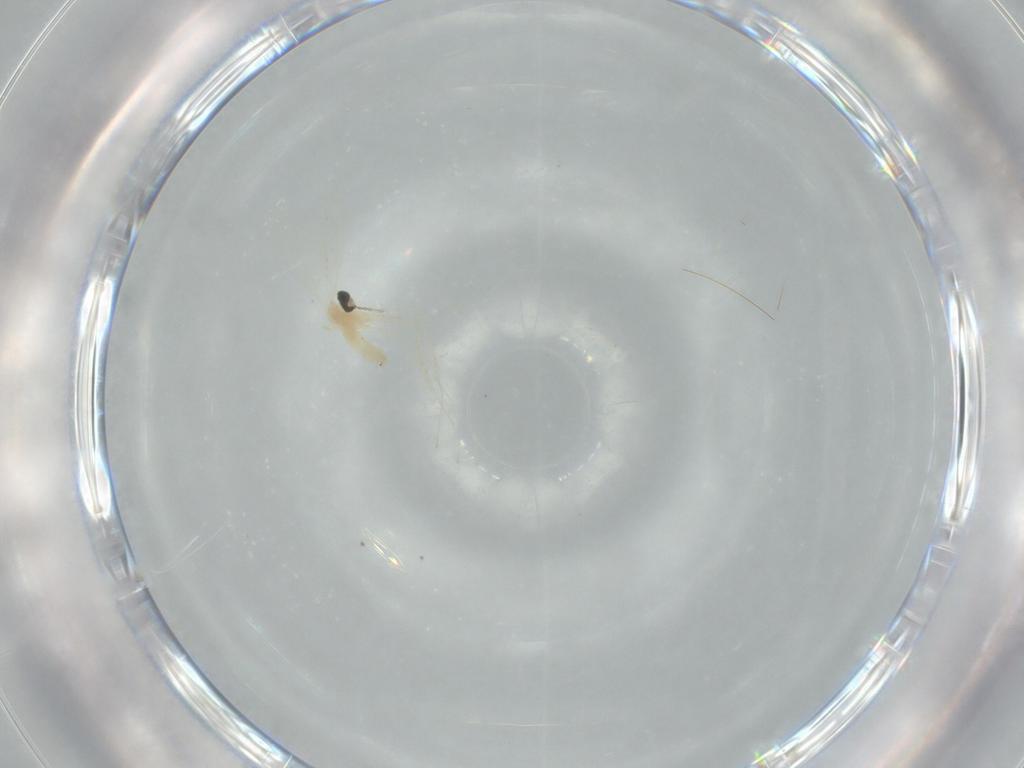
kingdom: Animalia
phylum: Arthropoda
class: Insecta
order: Diptera
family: Cecidomyiidae
